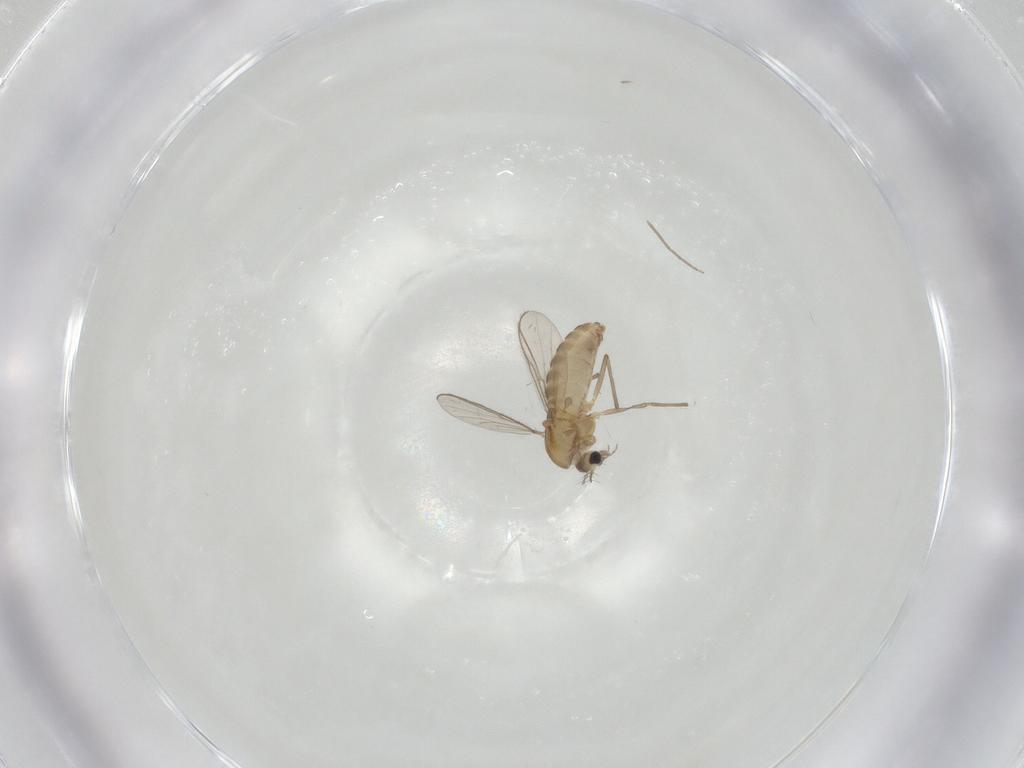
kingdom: Animalia
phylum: Arthropoda
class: Insecta
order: Diptera
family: Chironomidae
